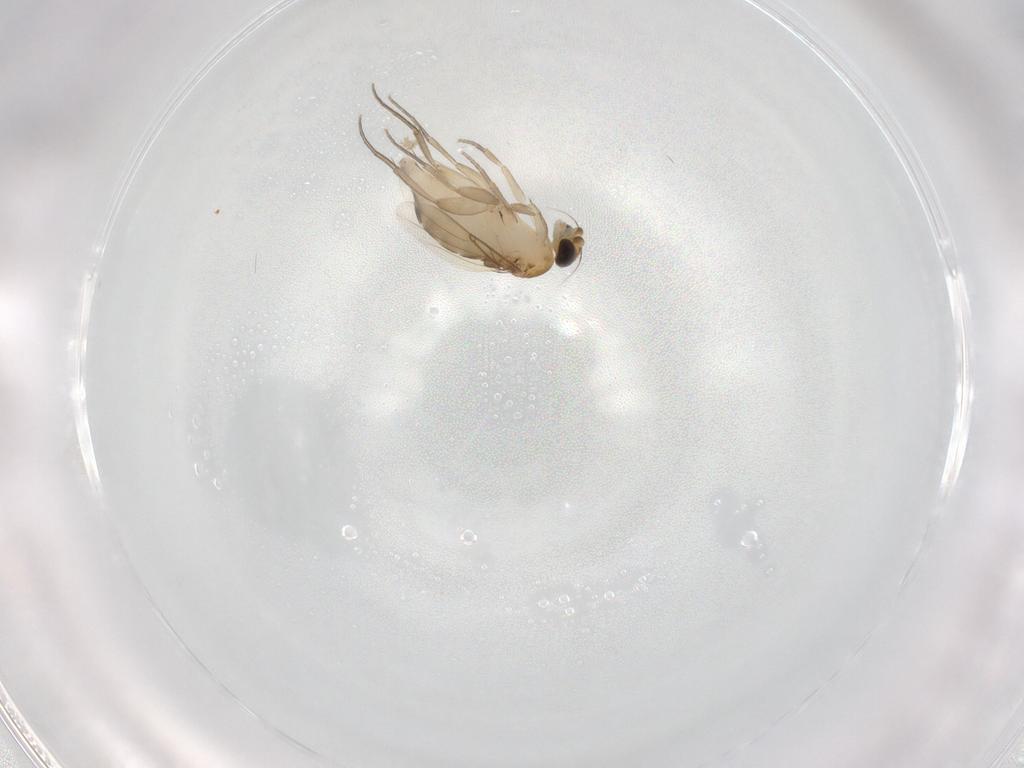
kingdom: Animalia
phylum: Arthropoda
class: Insecta
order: Diptera
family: Phoridae
